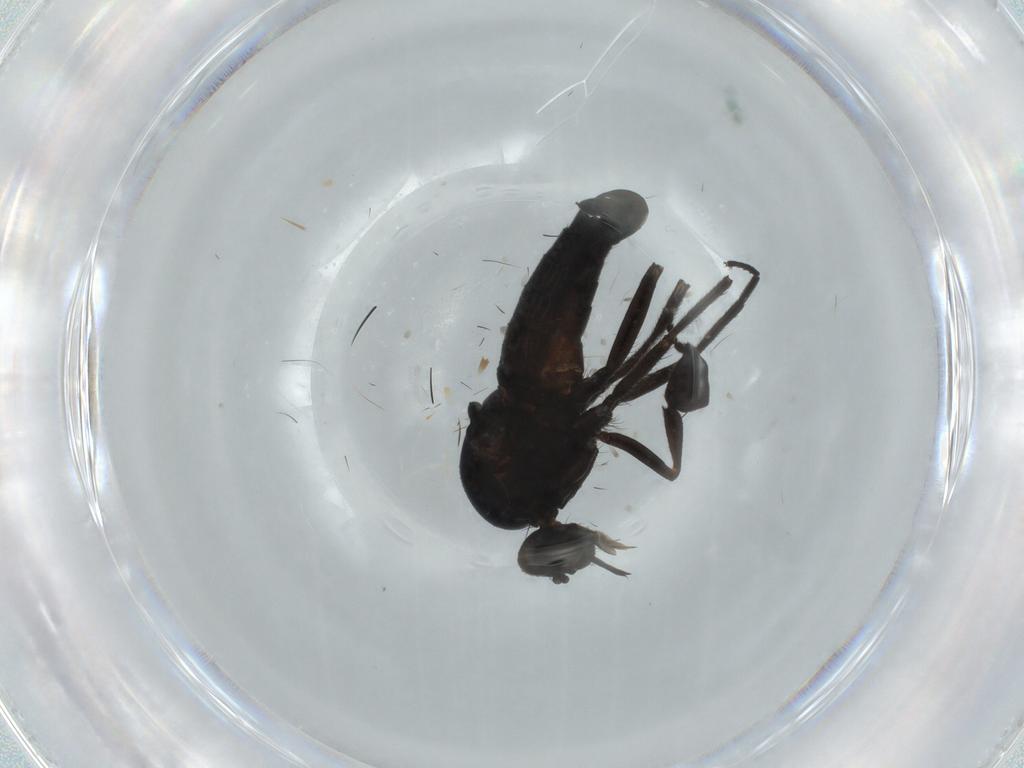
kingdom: Animalia
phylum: Arthropoda
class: Insecta
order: Diptera
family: Empididae
